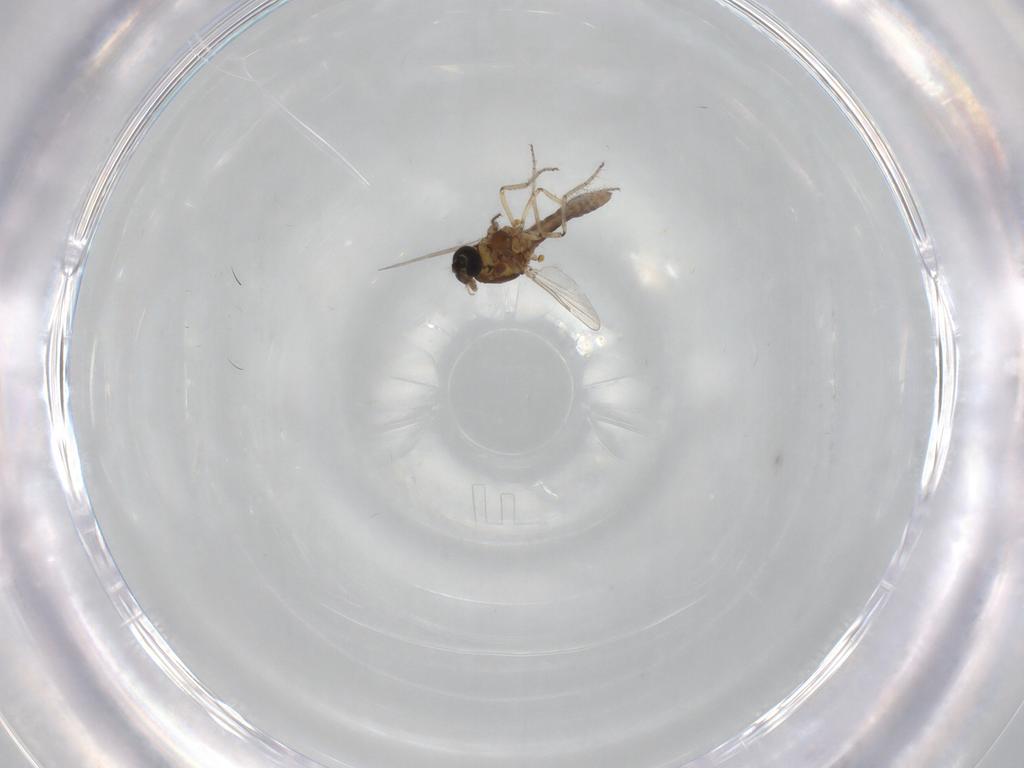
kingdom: Animalia
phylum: Arthropoda
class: Insecta
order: Diptera
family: Ceratopogonidae
